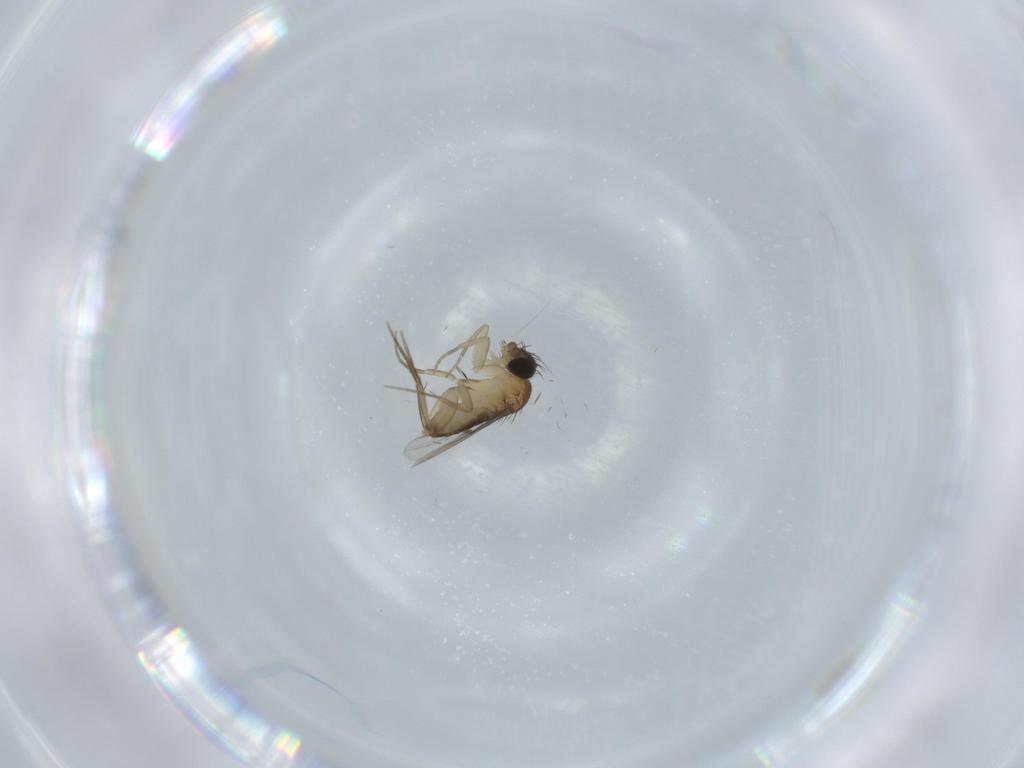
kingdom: Animalia
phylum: Arthropoda
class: Insecta
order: Diptera
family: Phoridae
